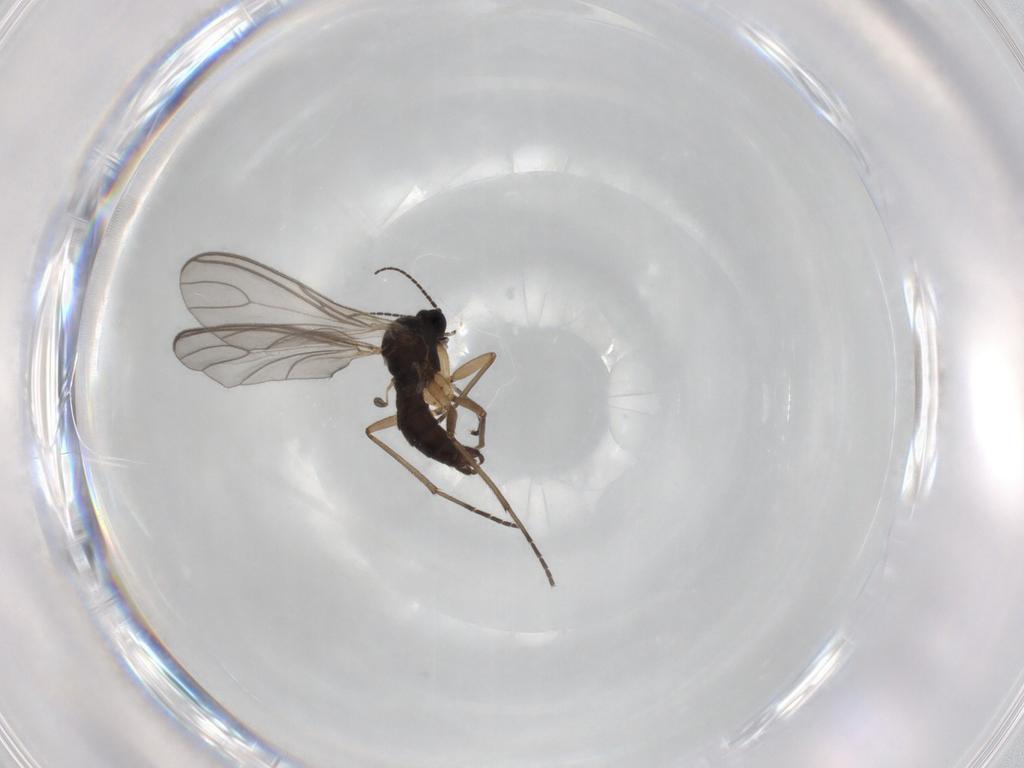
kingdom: Animalia
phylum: Arthropoda
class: Insecta
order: Diptera
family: Sciaridae
